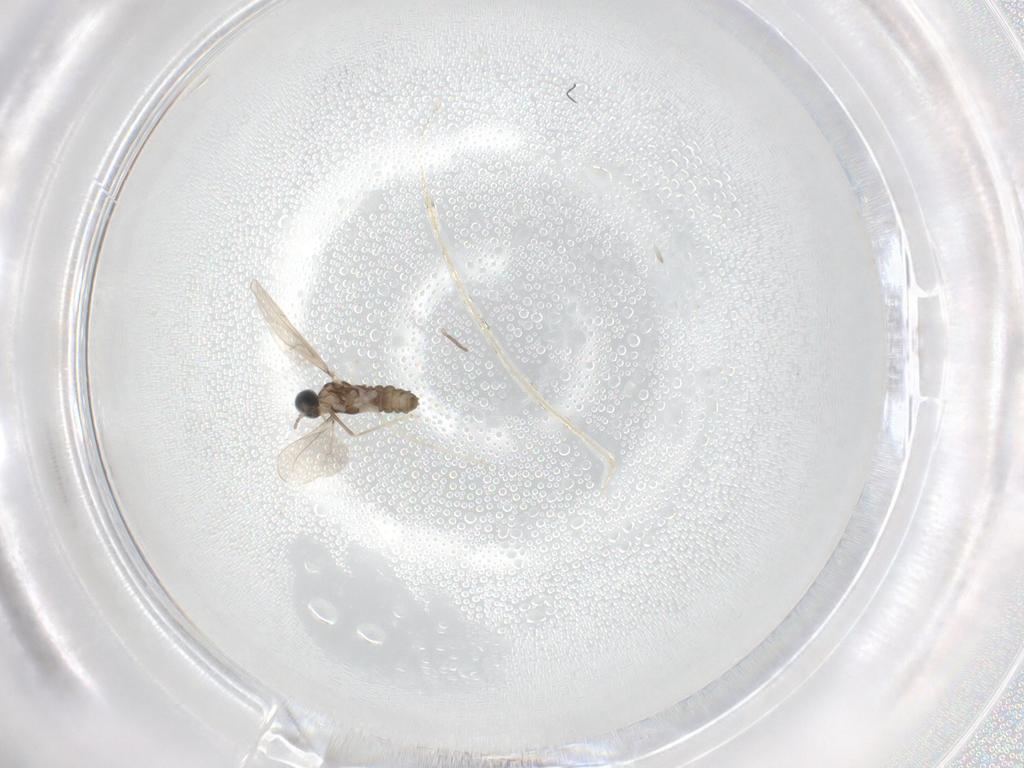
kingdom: Animalia
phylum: Arthropoda
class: Insecta
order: Diptera
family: Cecidomyiidae
